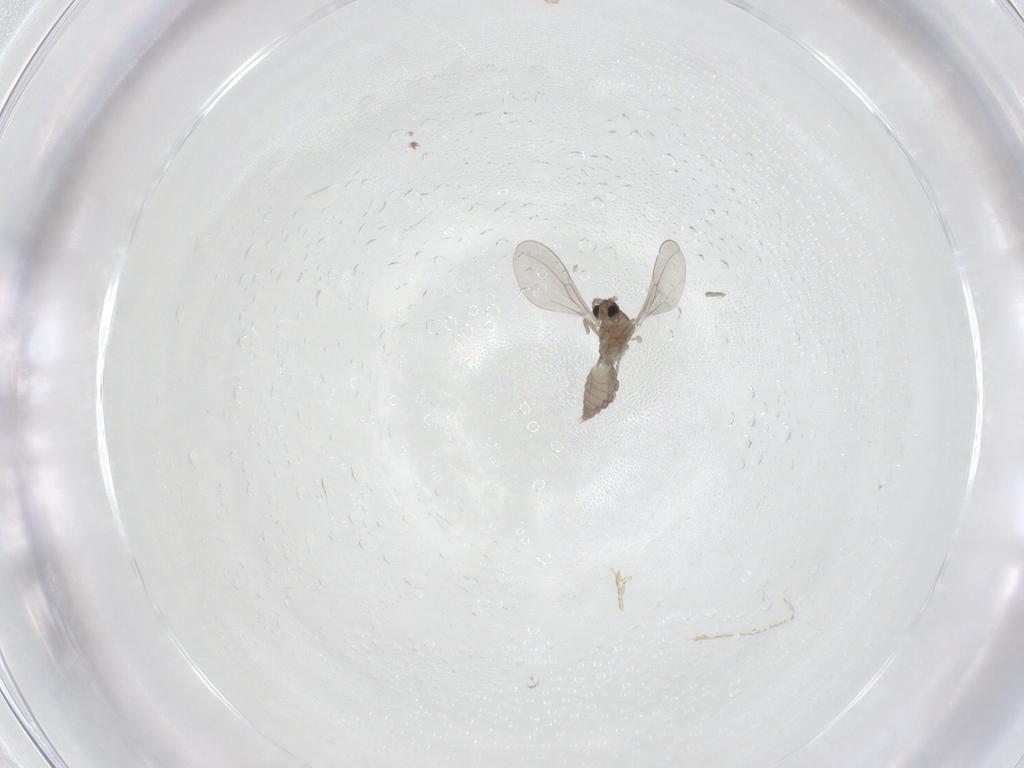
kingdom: Animalia
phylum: Arthropoda
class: Insecta
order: Diptera
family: Cecidomyiidae
